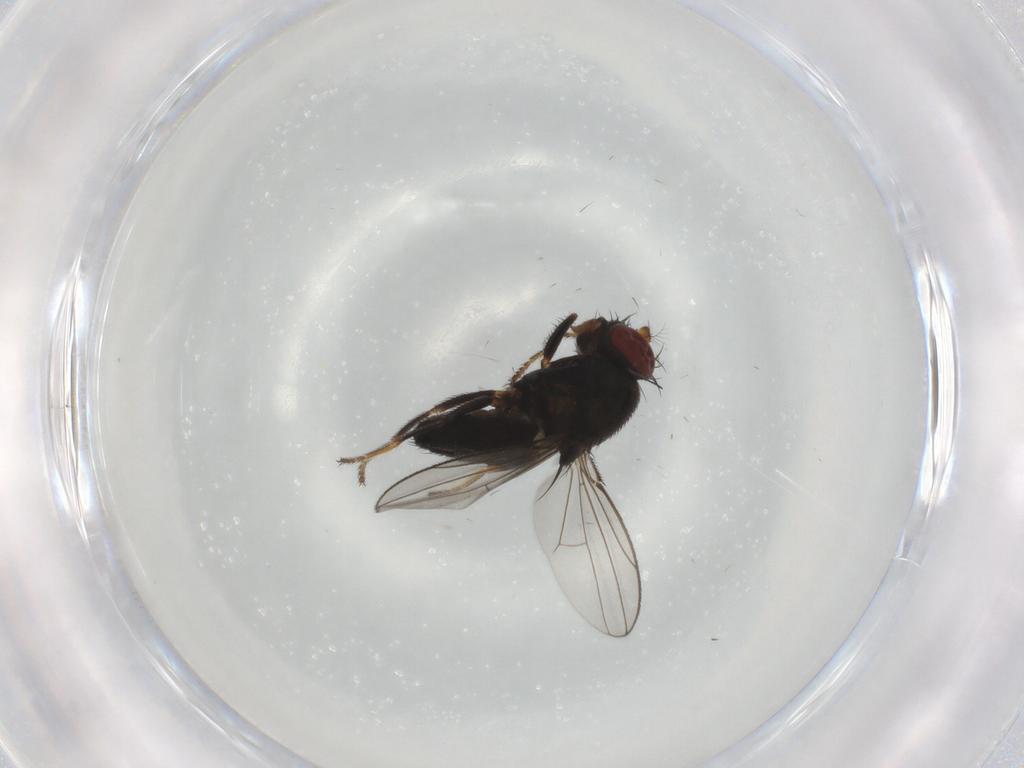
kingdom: Animalia
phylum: Arthropoda
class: Insecta
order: Diptera
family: Ephydridae
